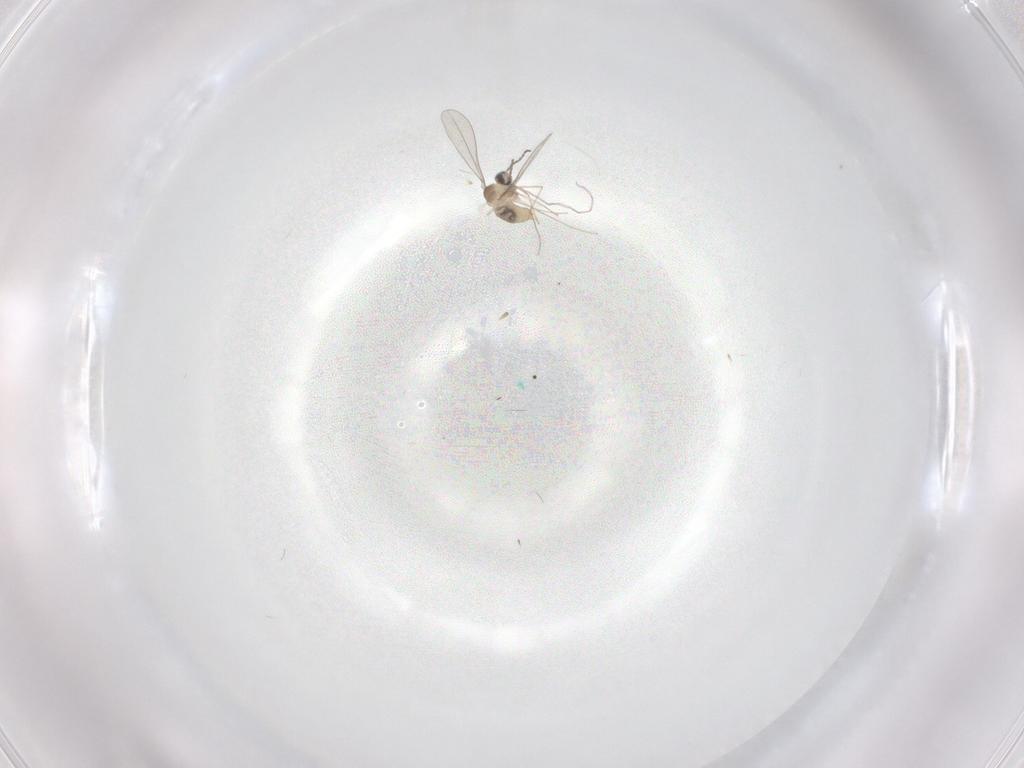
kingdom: Animalia
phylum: Arthropoda
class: Insecta
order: Diptera
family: Cecidomyiidae
